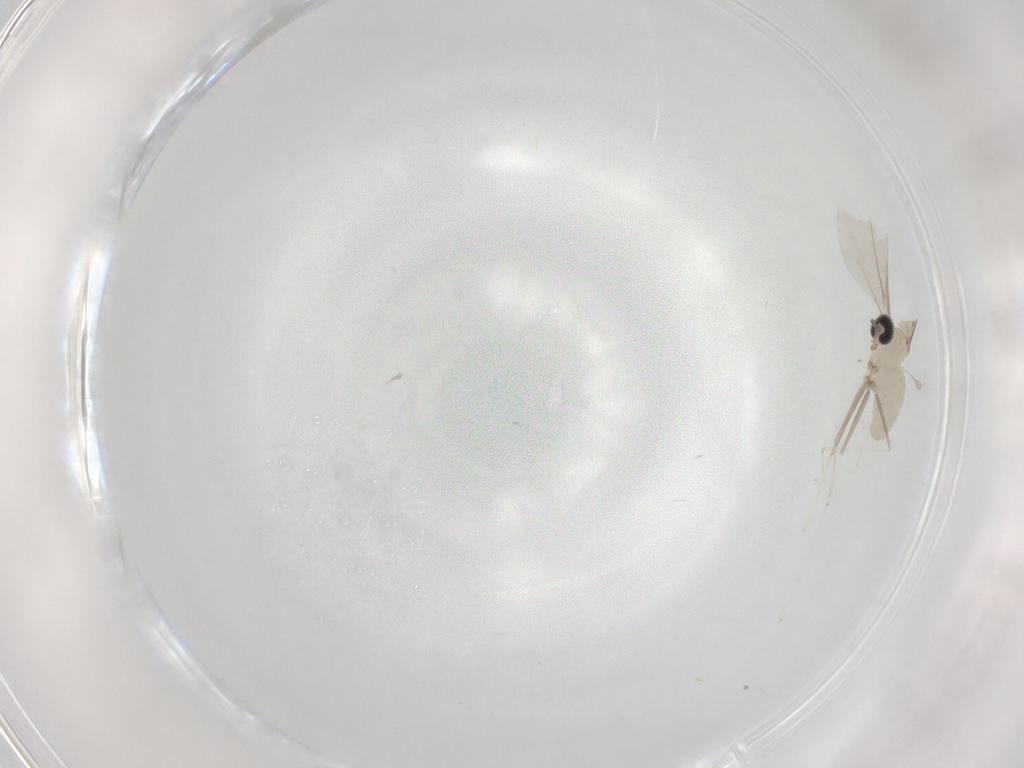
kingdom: Animalia
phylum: Arthropoda
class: Insecta
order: Diptera
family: Cecidomyiidae
